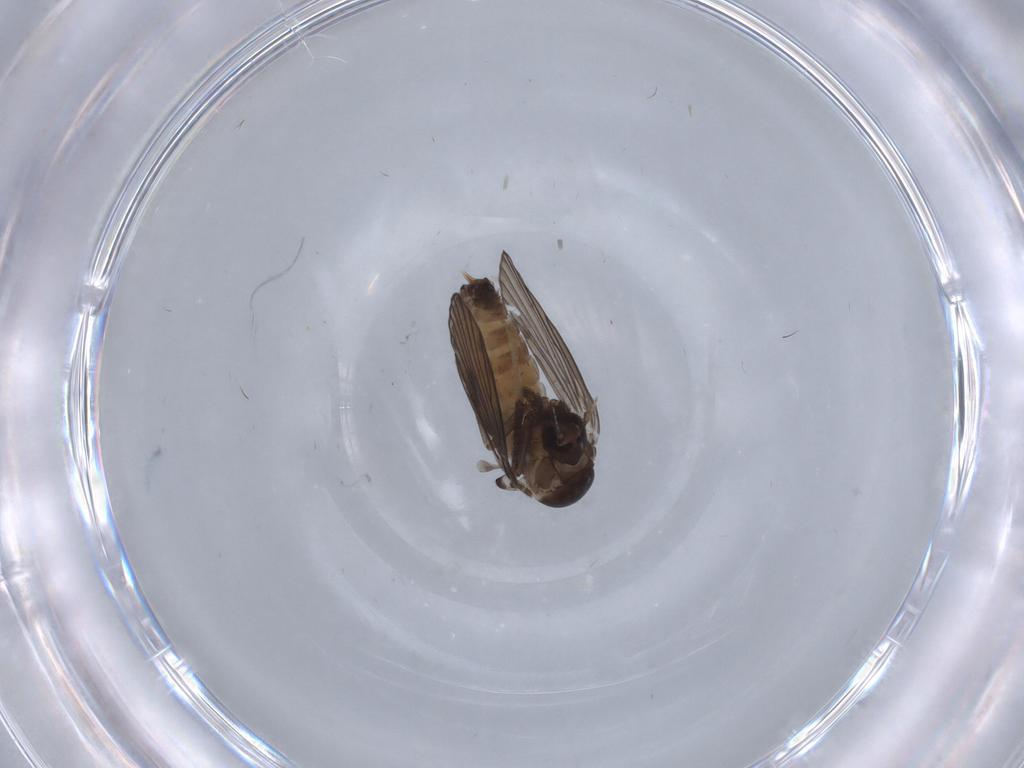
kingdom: Animalia
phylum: Arthropoda
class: Insecta
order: Diptera
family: Psychodidae
